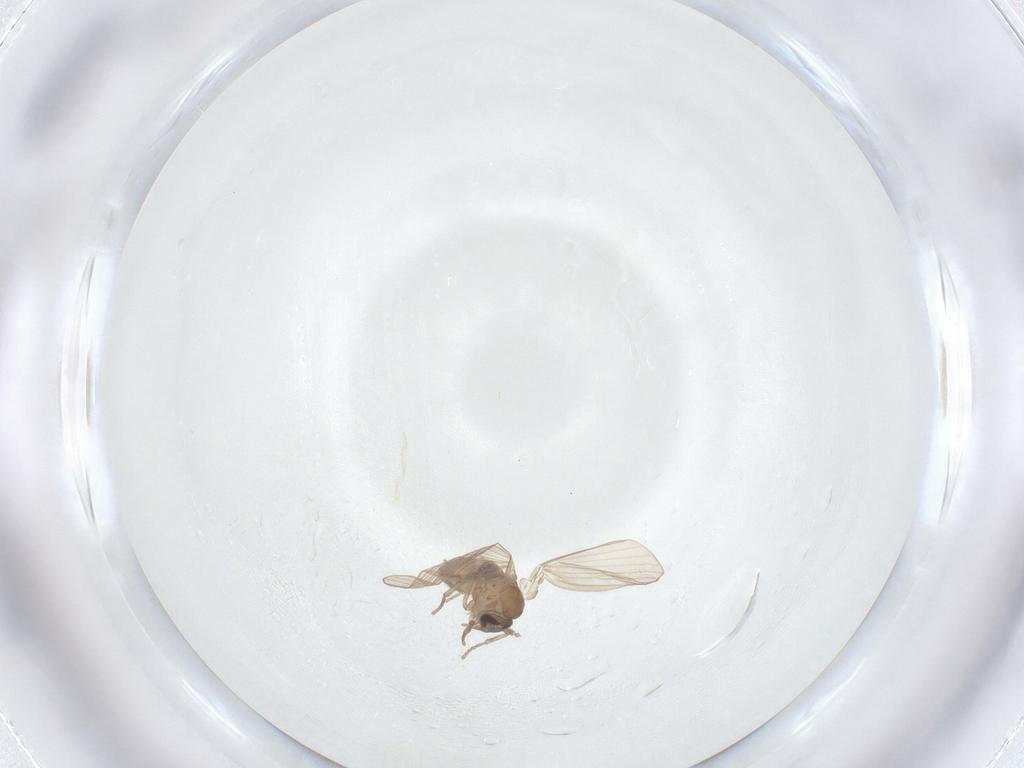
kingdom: Animalia
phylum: Arthropoda
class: Insecta
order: Diptera
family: Psychodidae
